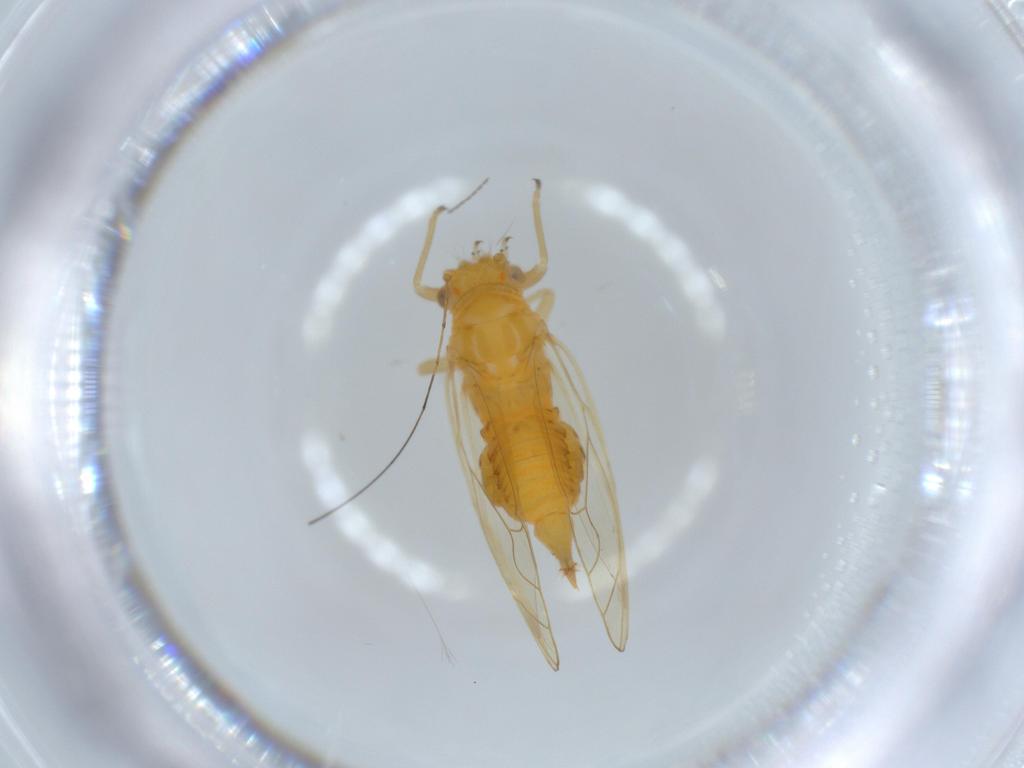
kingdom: Animalia
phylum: Arthropoda
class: Insecta
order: Hemiptera
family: Psyllidae
